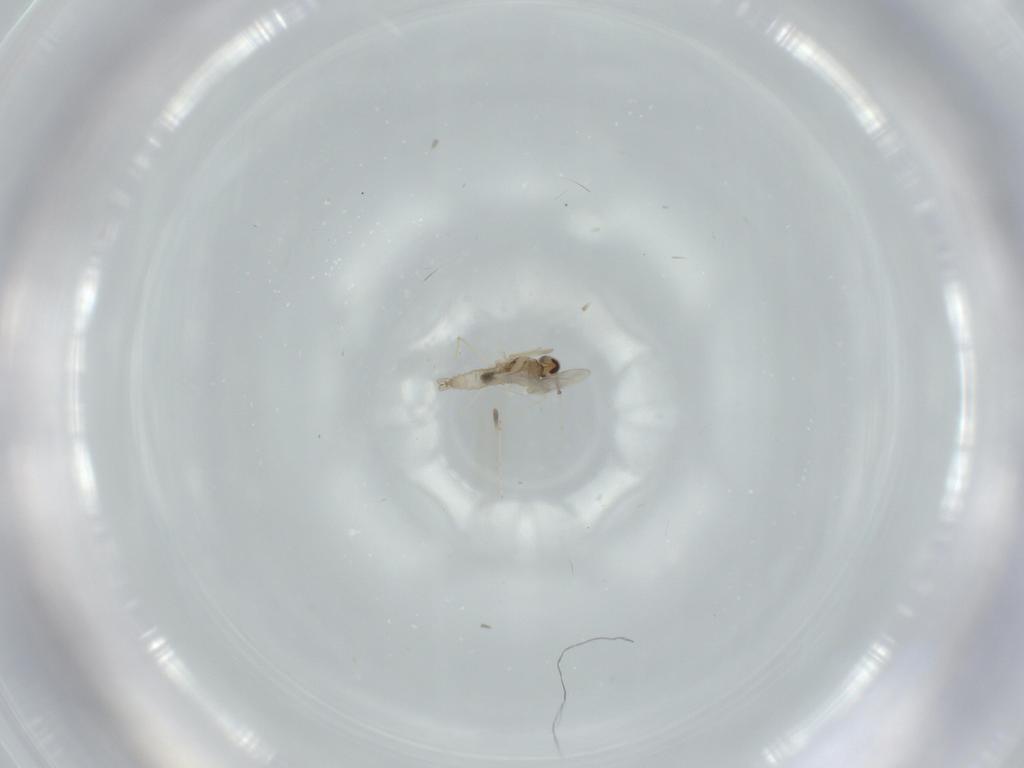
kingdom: Animalia
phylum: Arthropoda
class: Insecta
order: Diptera
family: Cecidomyiidae
